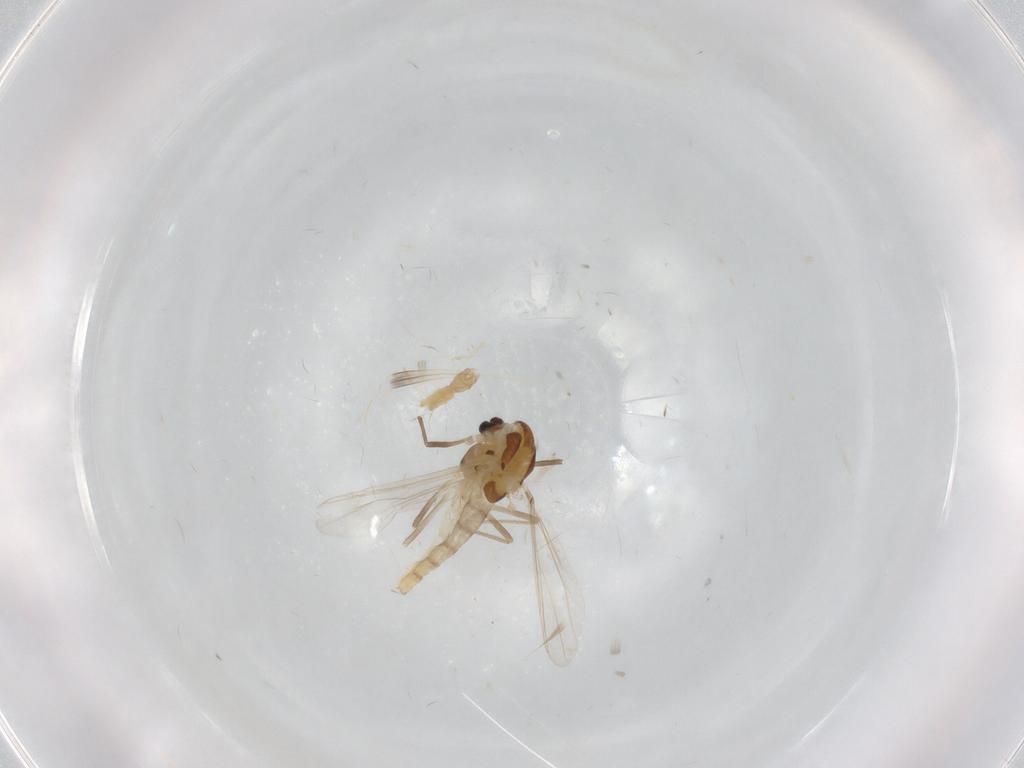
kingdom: Animalia
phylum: Arthropoda
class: Insecta
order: Diptera
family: Chironomidae
